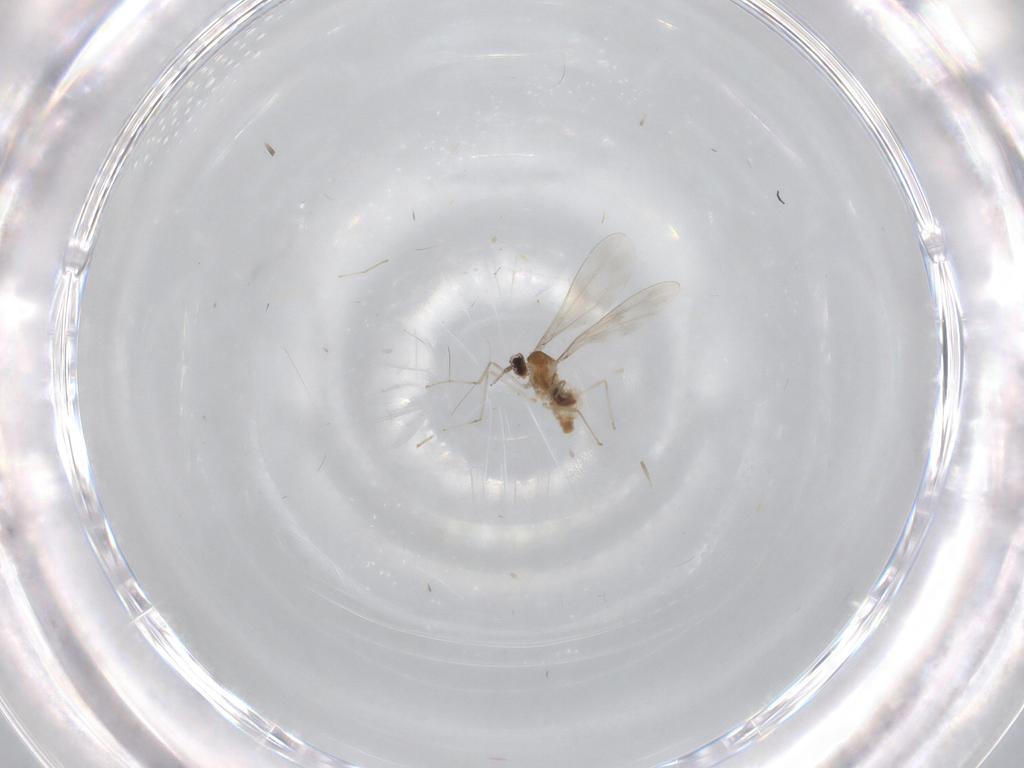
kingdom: Animalia
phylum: Arthropoda
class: Insecta
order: Diptera
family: Cecidomyiidae
